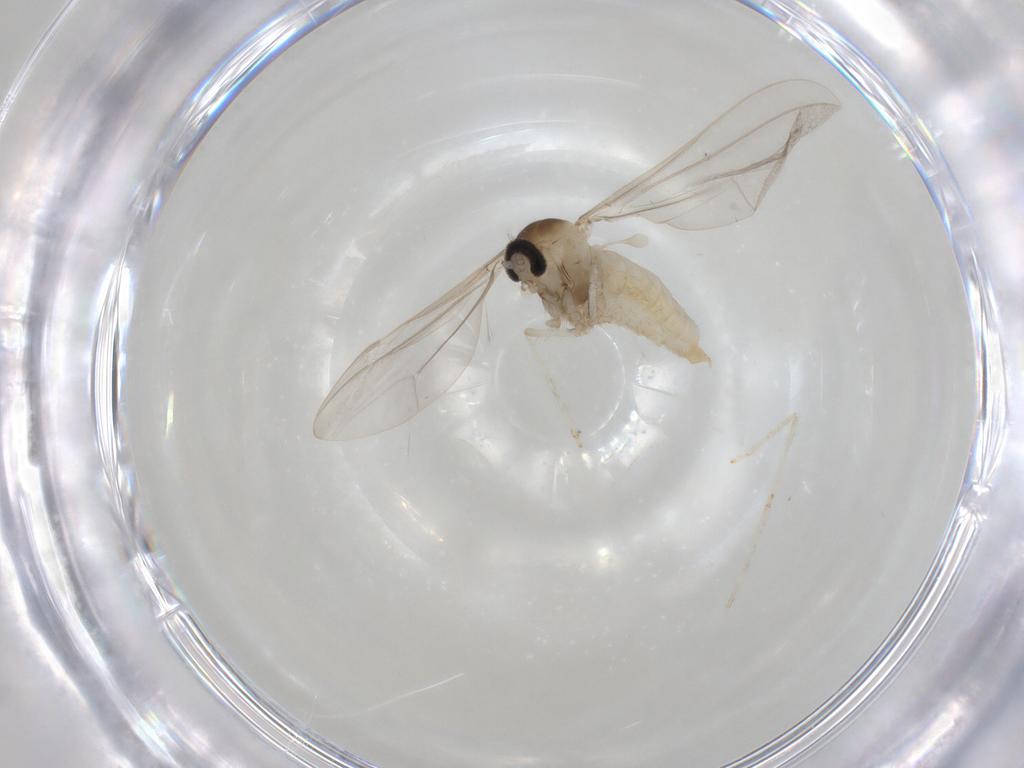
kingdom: Animalia
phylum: Arthropoda
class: Insecta
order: Diptera
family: Cecidomyiidae
